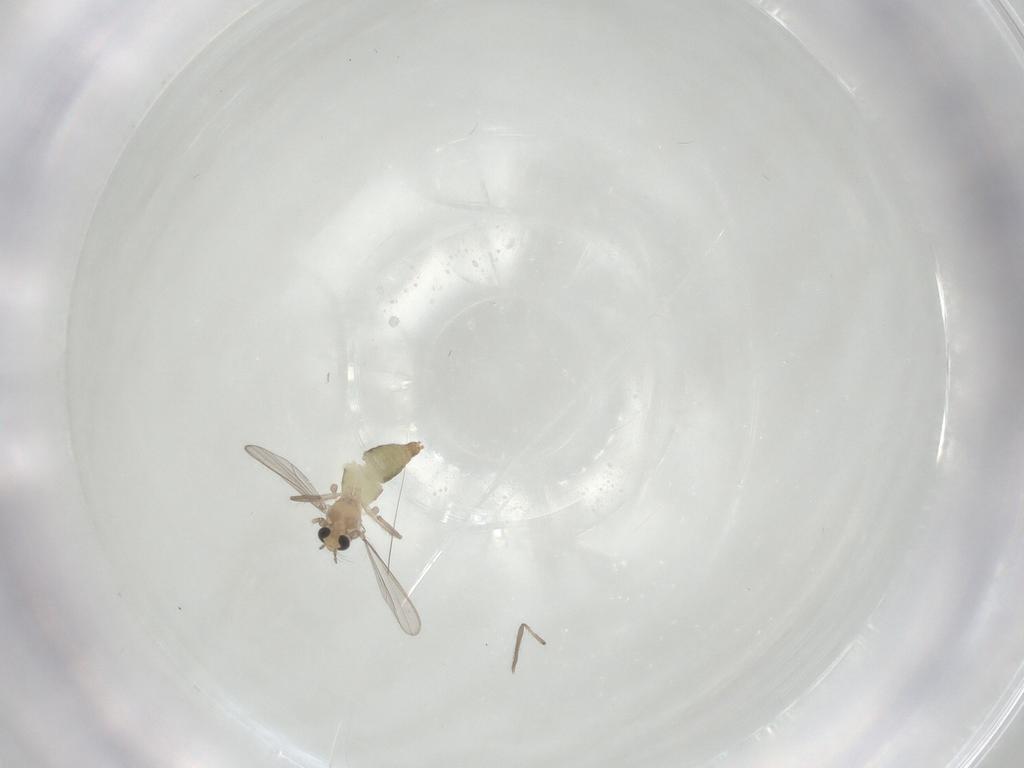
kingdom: Animalia
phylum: Arthropoda
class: Insecta
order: Diptera
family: Chironomidae
